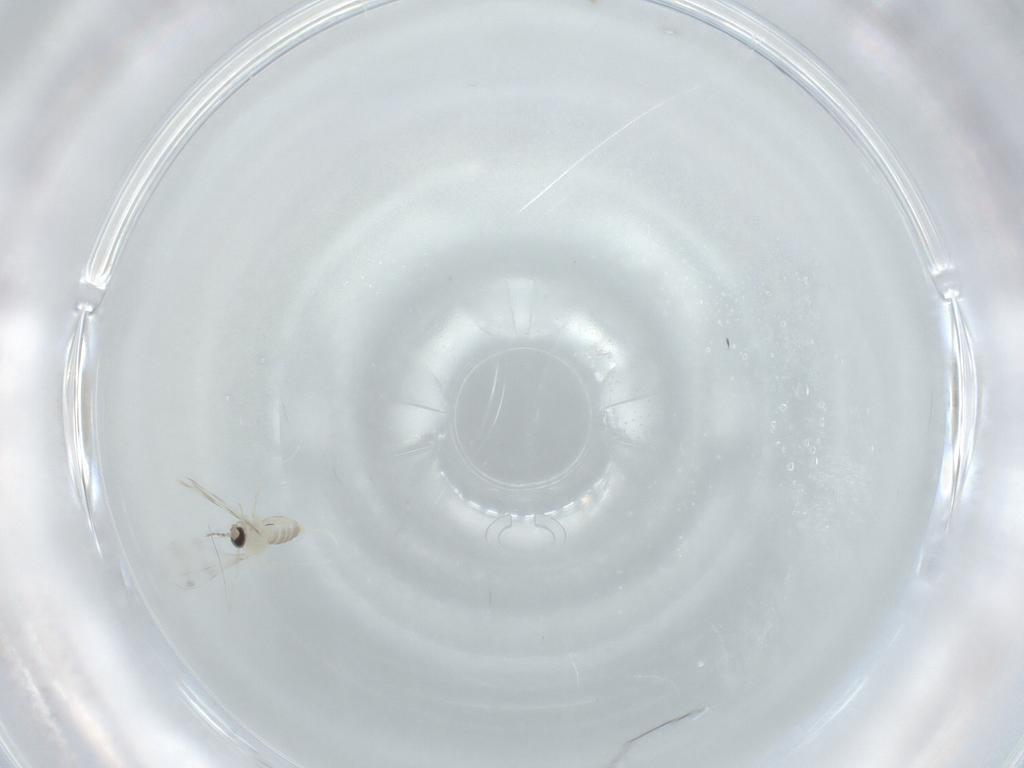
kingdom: Animalia
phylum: Arthropoda
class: Insecta
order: Diptera
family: Cecidomyiidae
